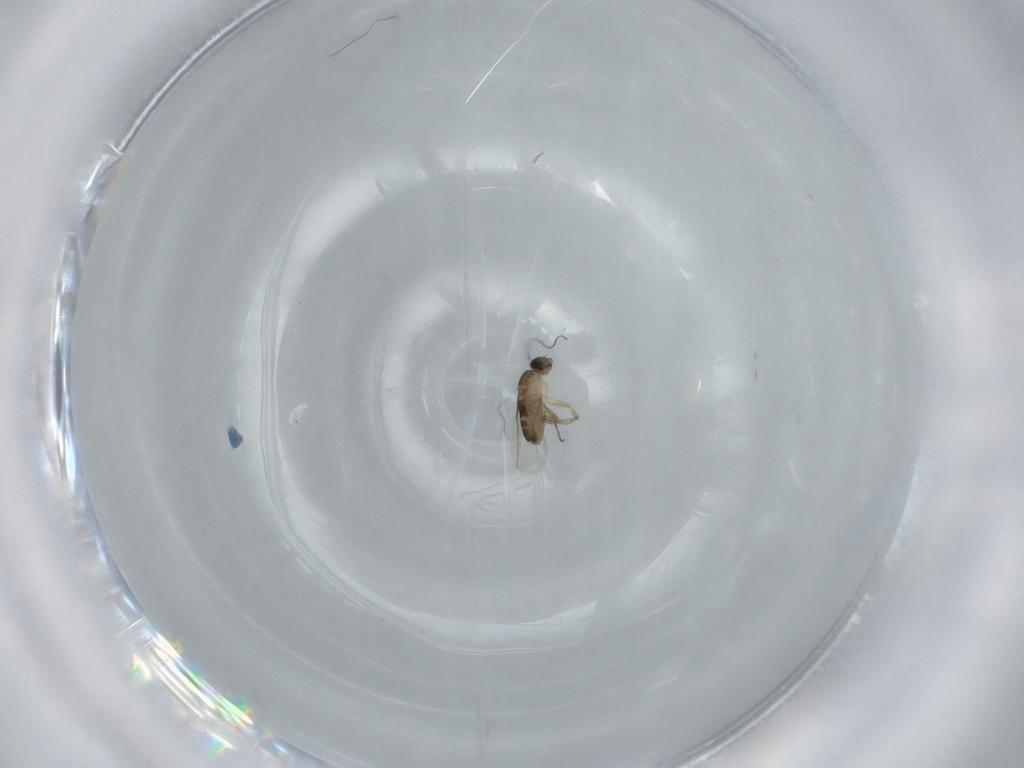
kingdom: Animalia
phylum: Arthropoda
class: Insecta
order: Diptera
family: Phoridae
